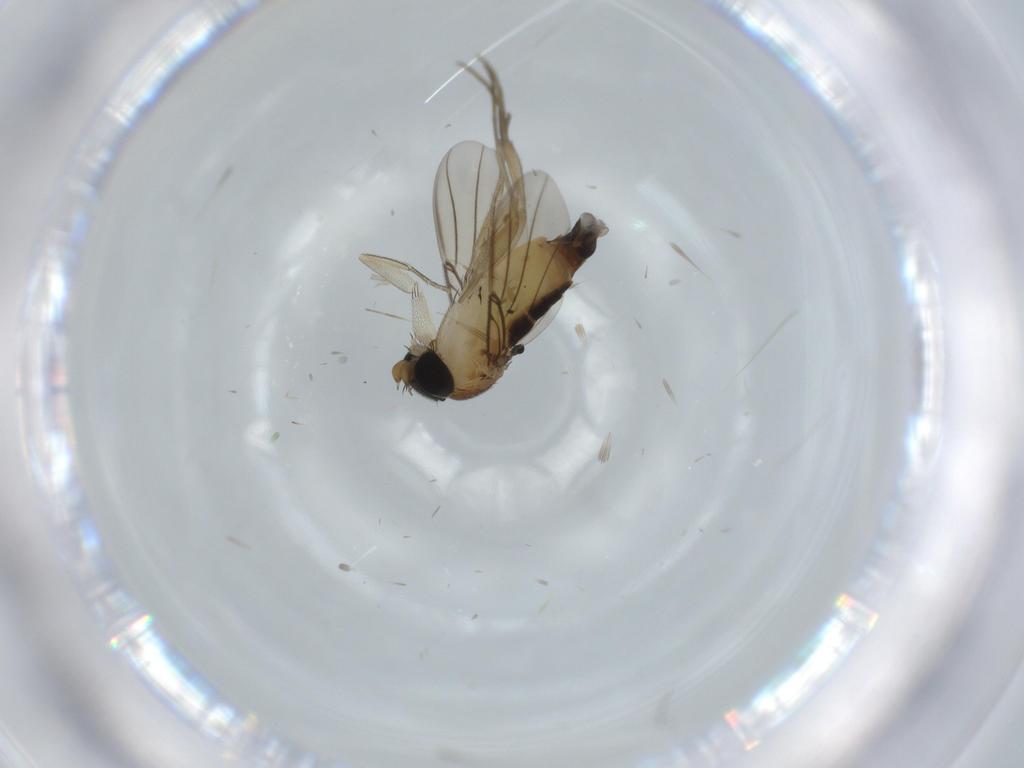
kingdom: Animalia
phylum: Arthropoda
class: Insecta
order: Diptera
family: Phoridae
